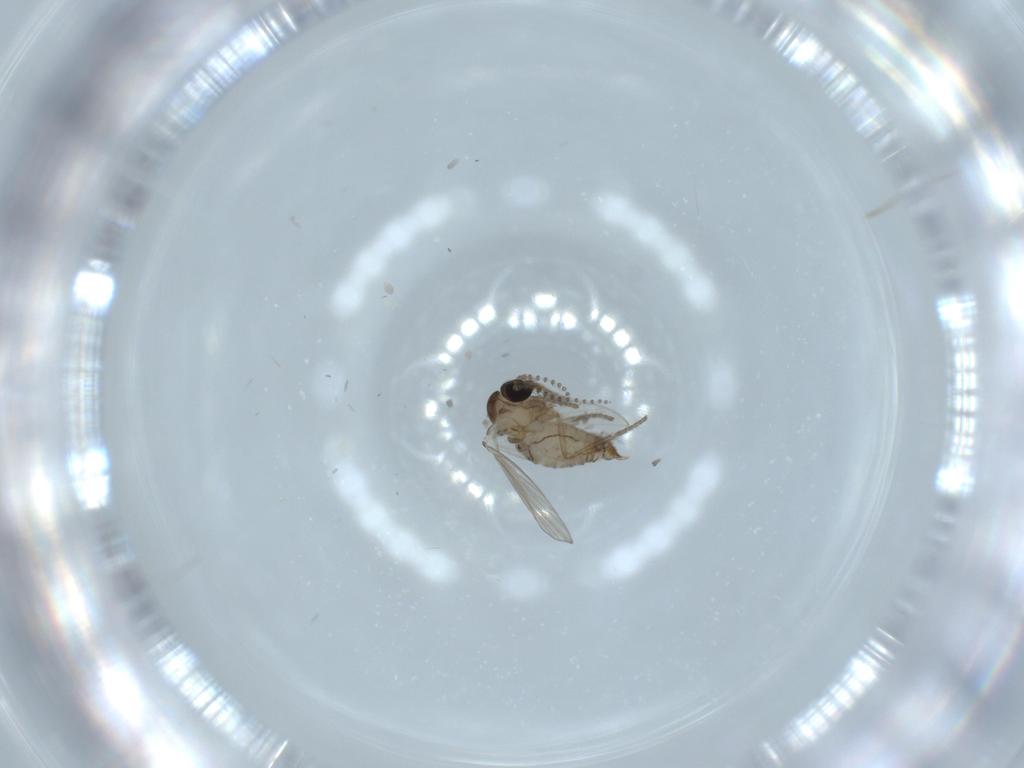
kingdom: Animalia
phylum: Arthropoda
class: Insecta
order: Diptera
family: Psychodidae
